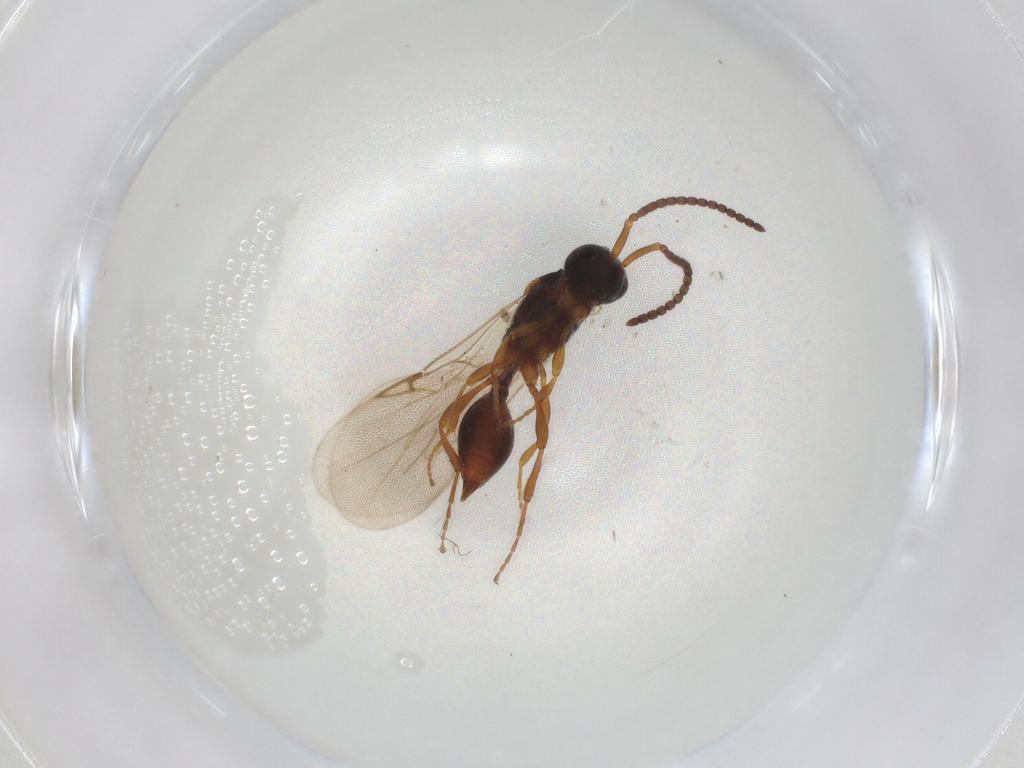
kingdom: Animalia
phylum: Arthropoda
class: Insecta
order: Hymenoptera
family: Diapriidae
